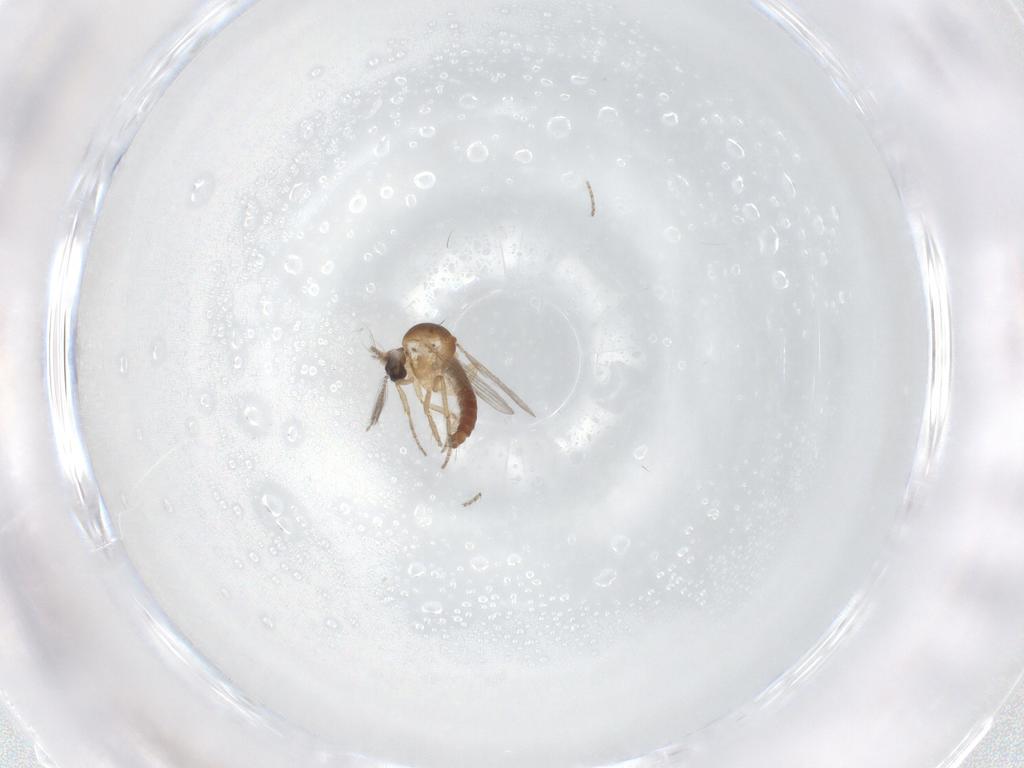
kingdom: Animalia
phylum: Arthropoda
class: Insecta
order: Diptera
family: Ceratopogonidae
